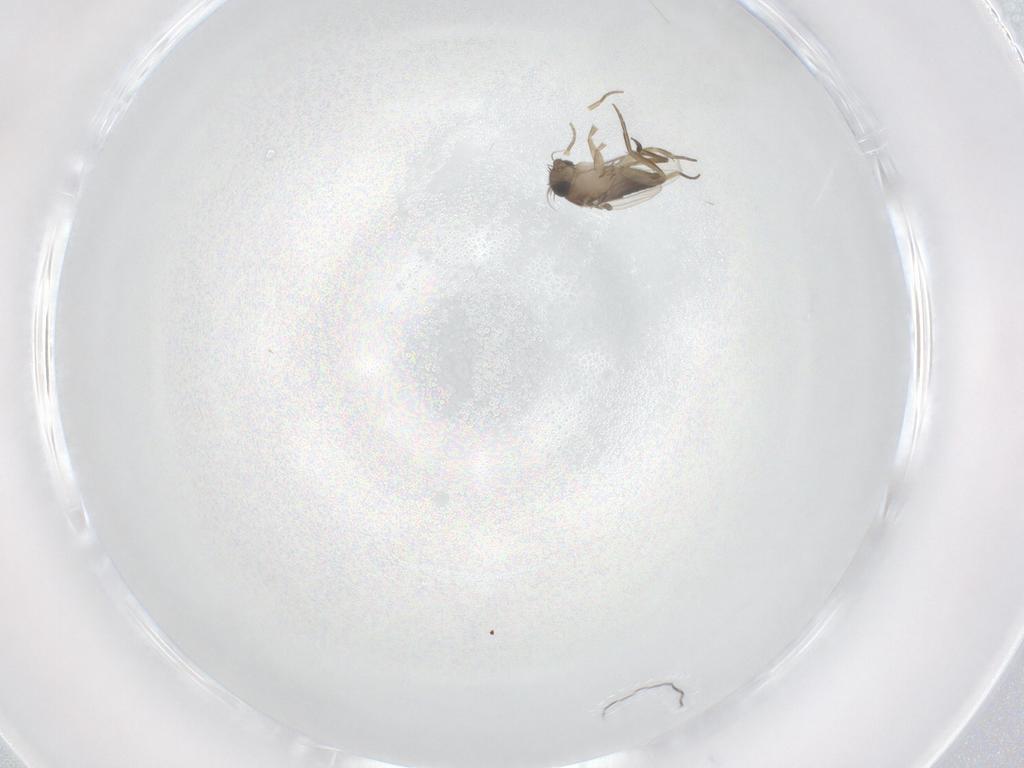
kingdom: Animalia
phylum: Arthropoda
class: Insecta
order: Diptera
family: Phoridae
